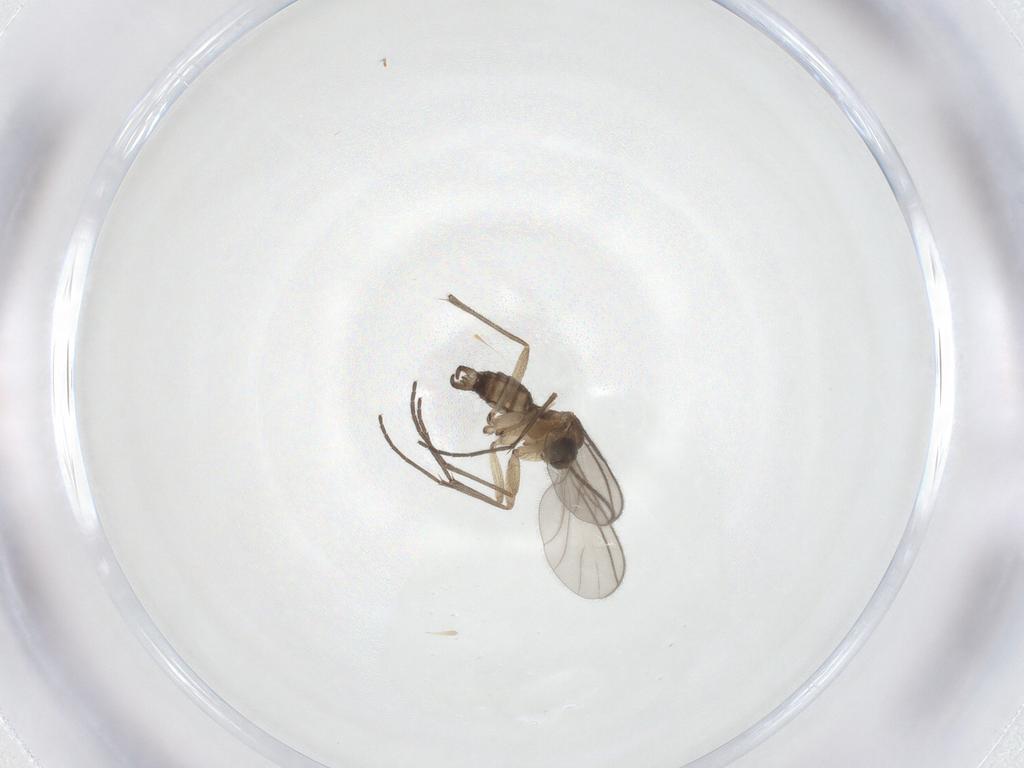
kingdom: Animalia
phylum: Arthropoda
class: Insecta
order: Diptera
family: Sciaridae
